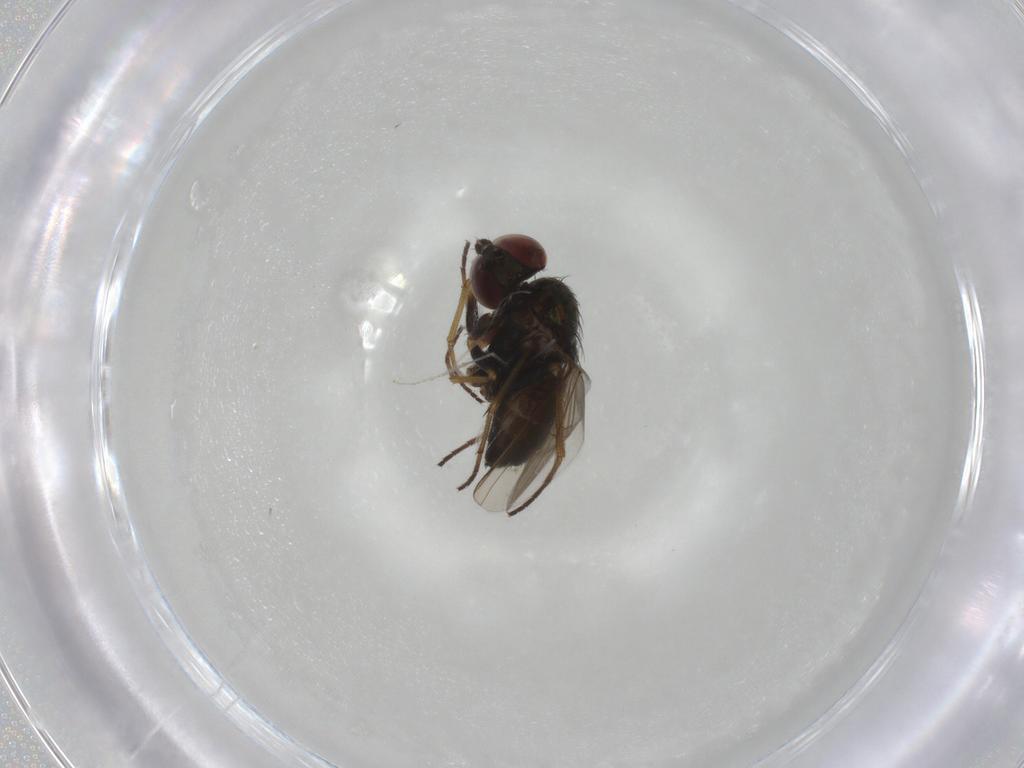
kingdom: Animalia
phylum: Arthropoda
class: Insecta
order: Diptera
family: Dolichopodidae
